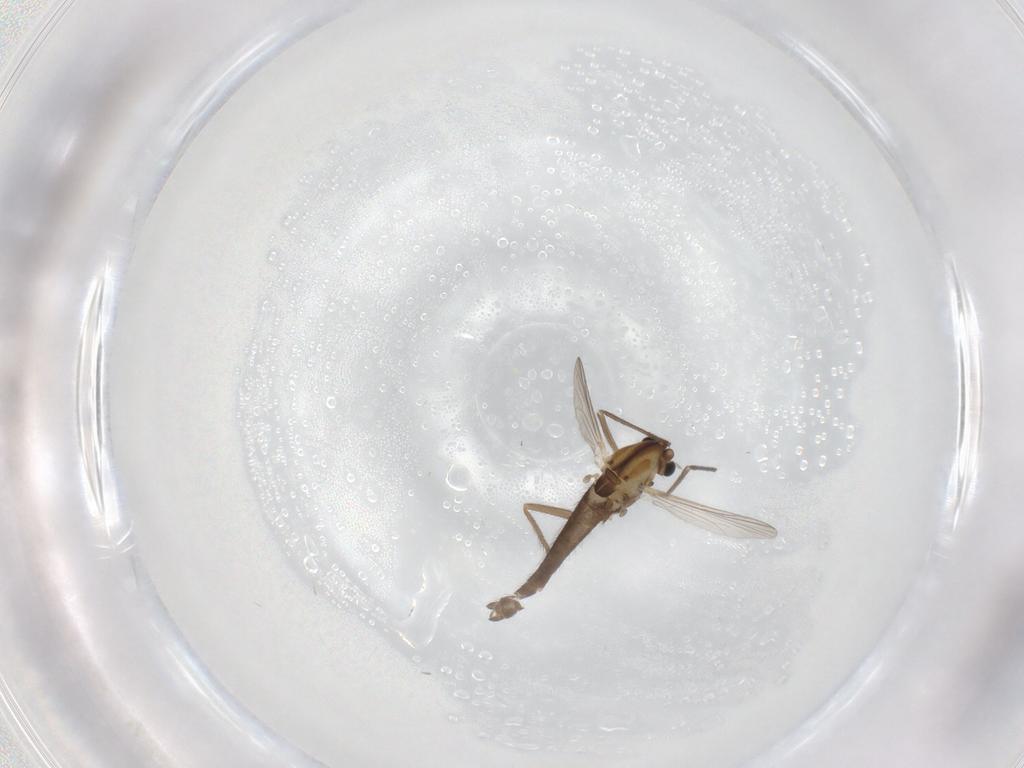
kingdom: Animalia
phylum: Arthropoda
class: Insecta
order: Diptera
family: Chironomidae
